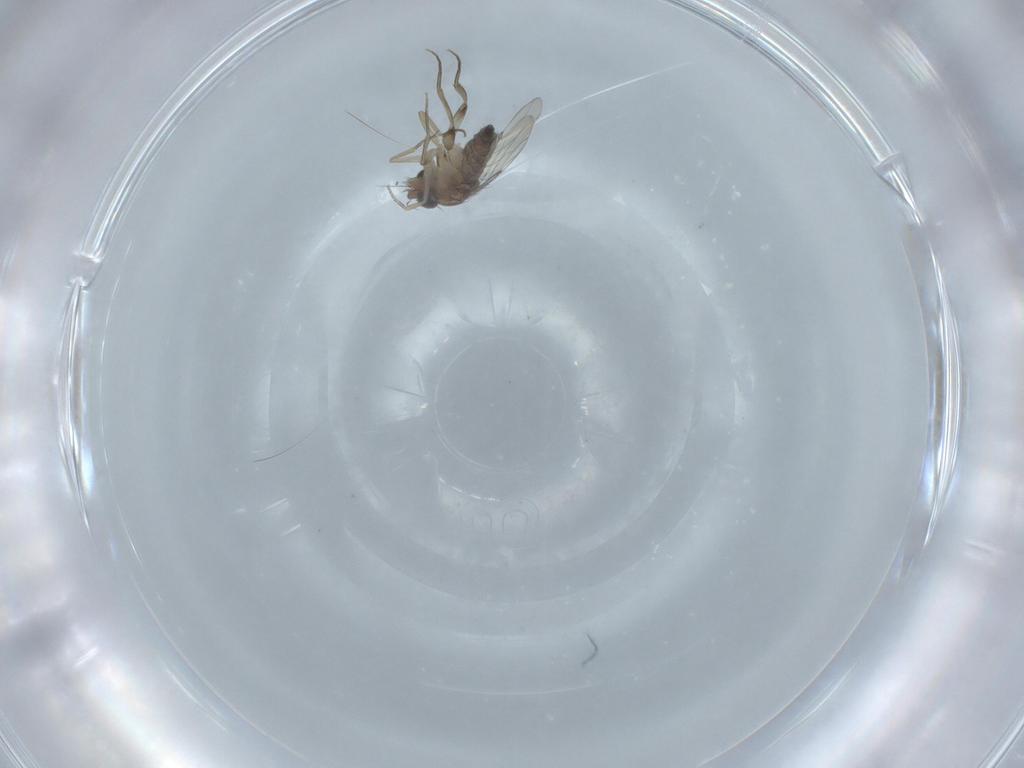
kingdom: Animalia
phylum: Arthropoda
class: Insecta
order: Diptera
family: Phoridae
